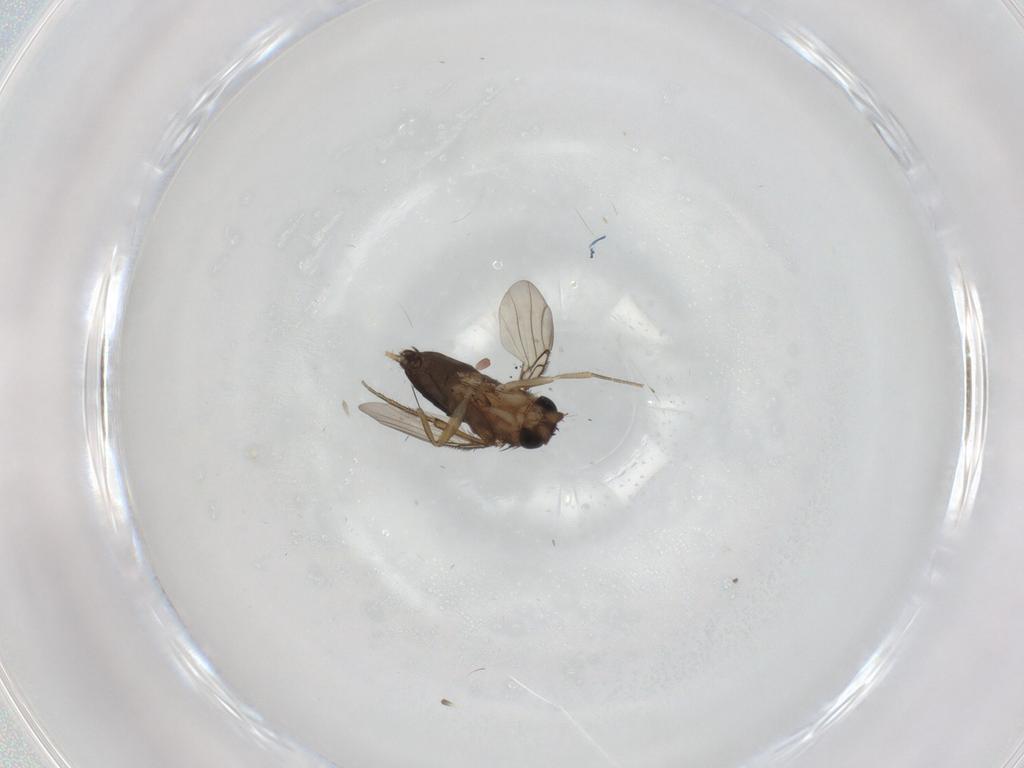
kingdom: Animalia
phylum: Arthropoda
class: Insecta
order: Diptera
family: Cecidomyiidae
